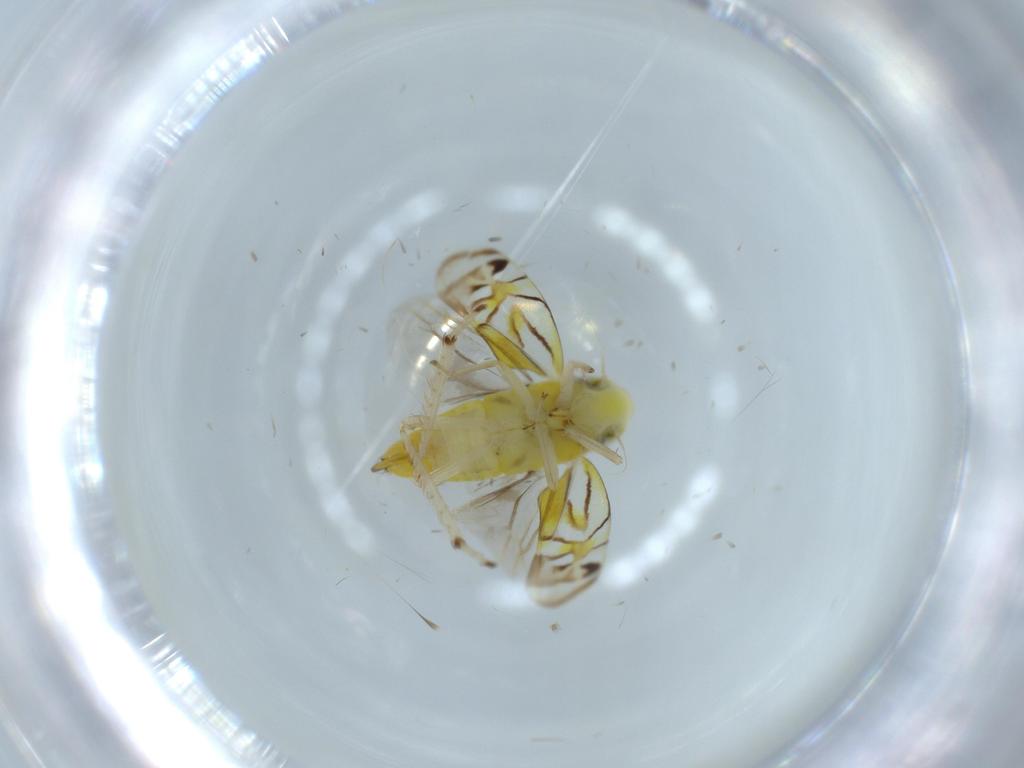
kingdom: Animalia
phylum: Arthropoda
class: Insecta
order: Hemiptera
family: Cicadellidae
